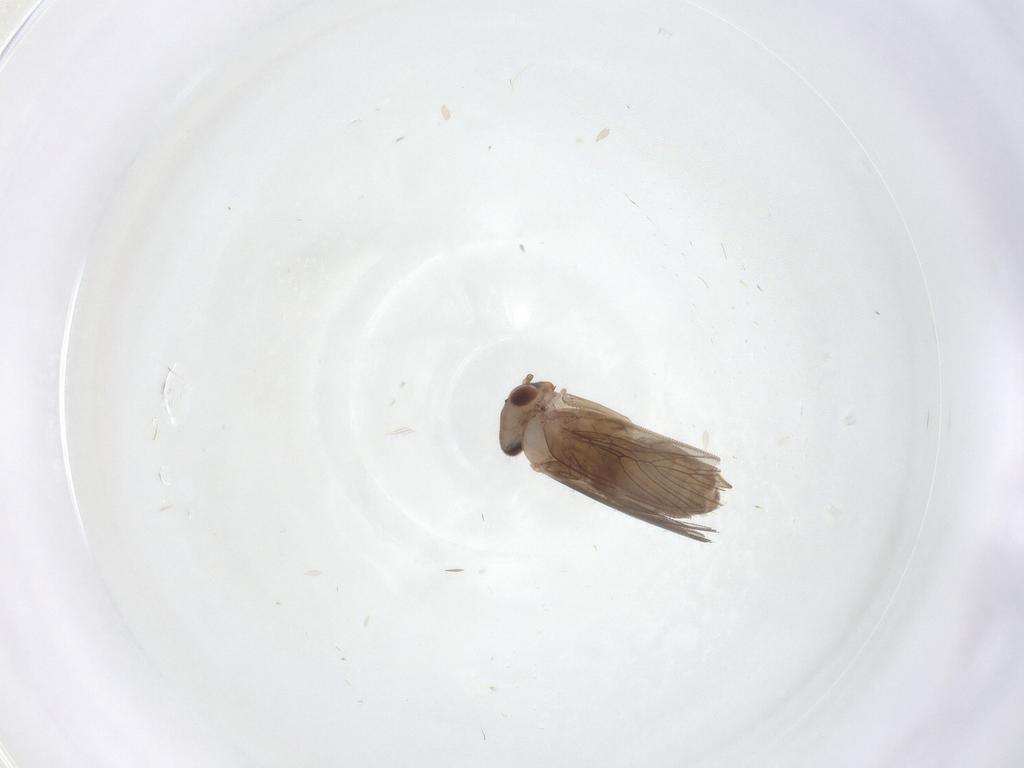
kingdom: Animalia
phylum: Arthropoda
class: Insecta
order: Psocodea
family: Lepidopsocidae
